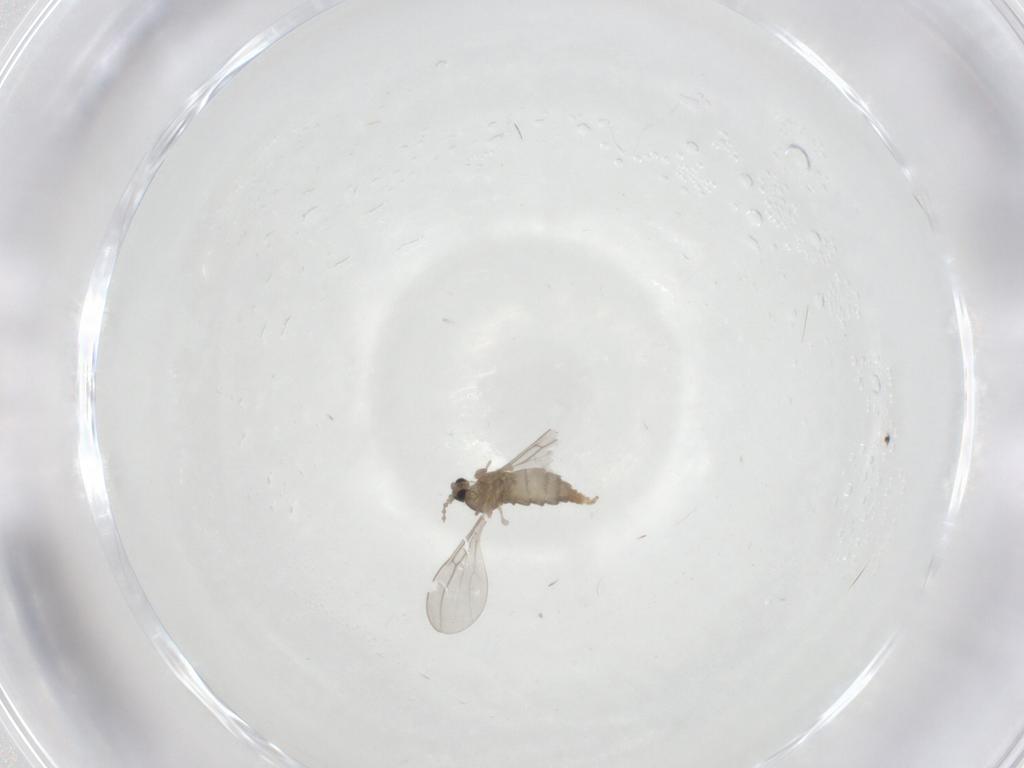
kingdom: Animalia
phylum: Arthropoda
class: Insecta
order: Diptera
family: Cecidomyiidae
